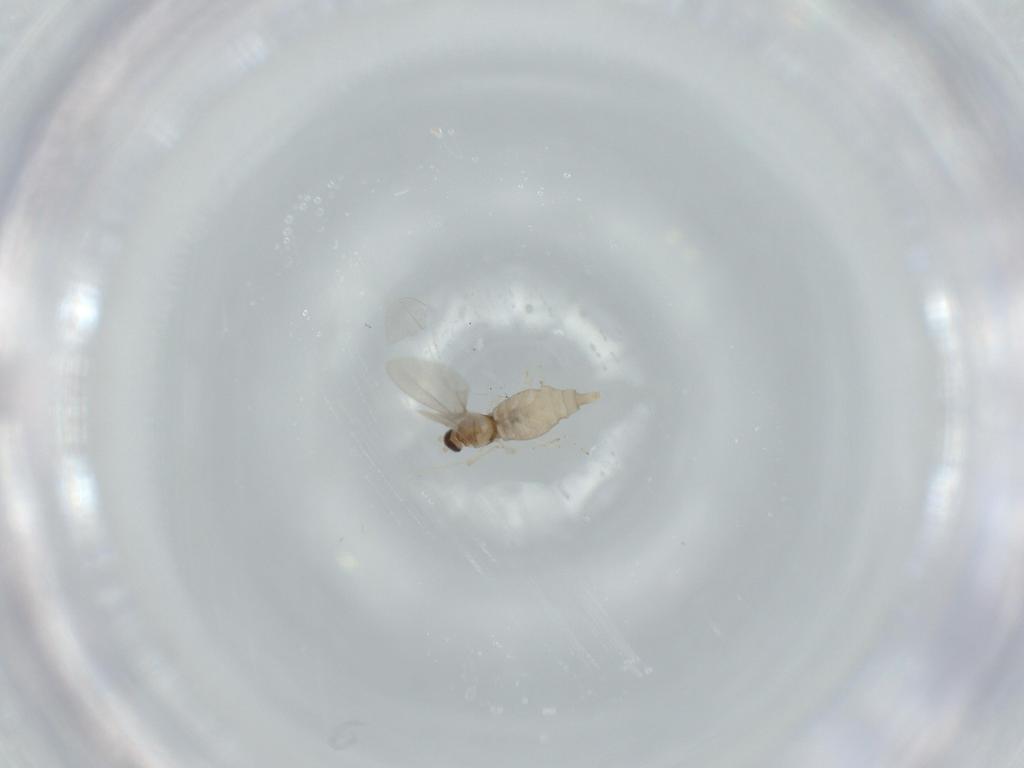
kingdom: Animalia
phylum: Arthropoda
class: Insecta
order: Diptera
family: Cecidomyiidae
